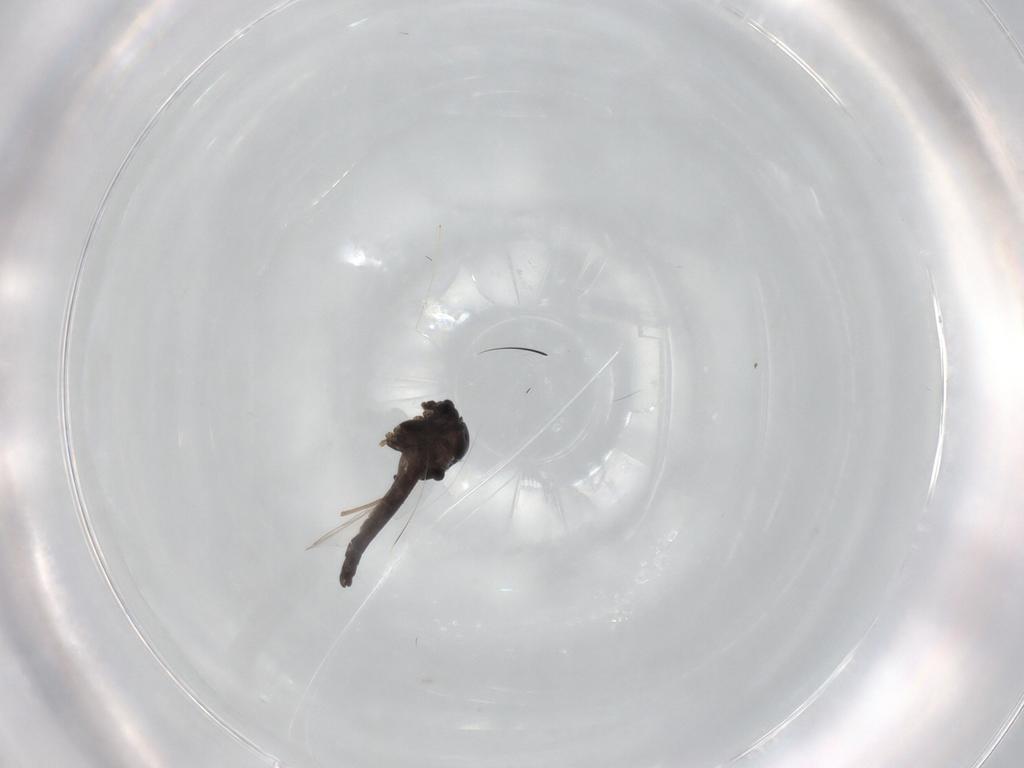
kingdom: Animalia
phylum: Arthropoda
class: Insecta
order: Diptera
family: Chironomidae
